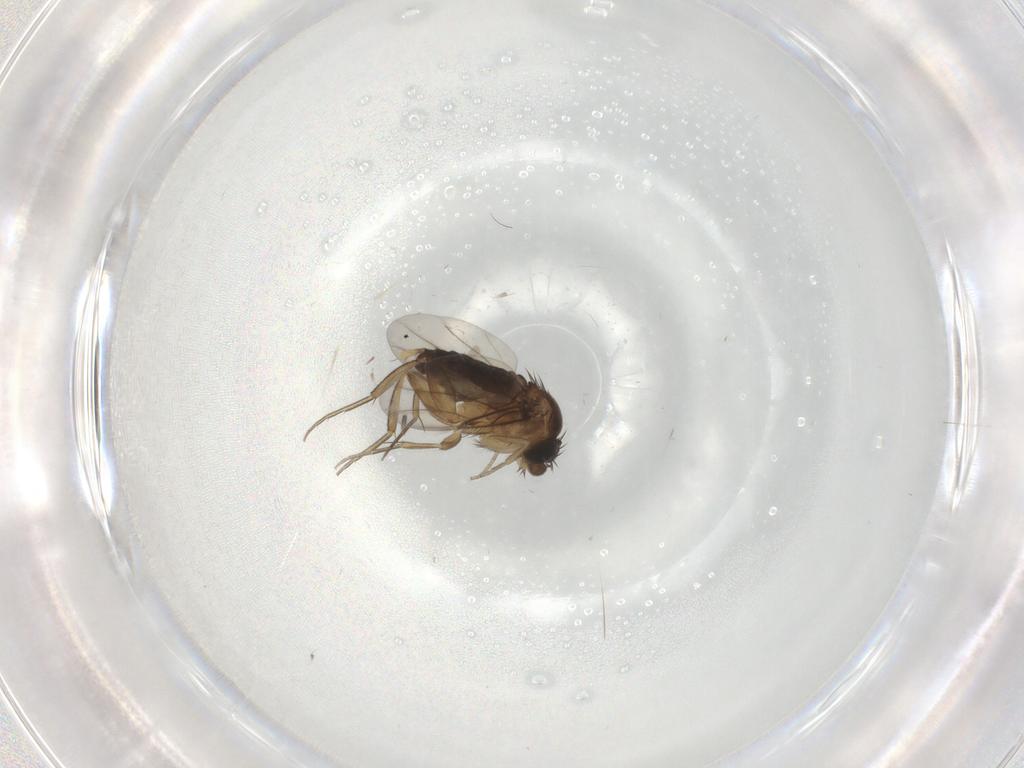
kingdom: Animalia
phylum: Arthropoda
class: Insecta
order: Diptera
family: Phoridae
